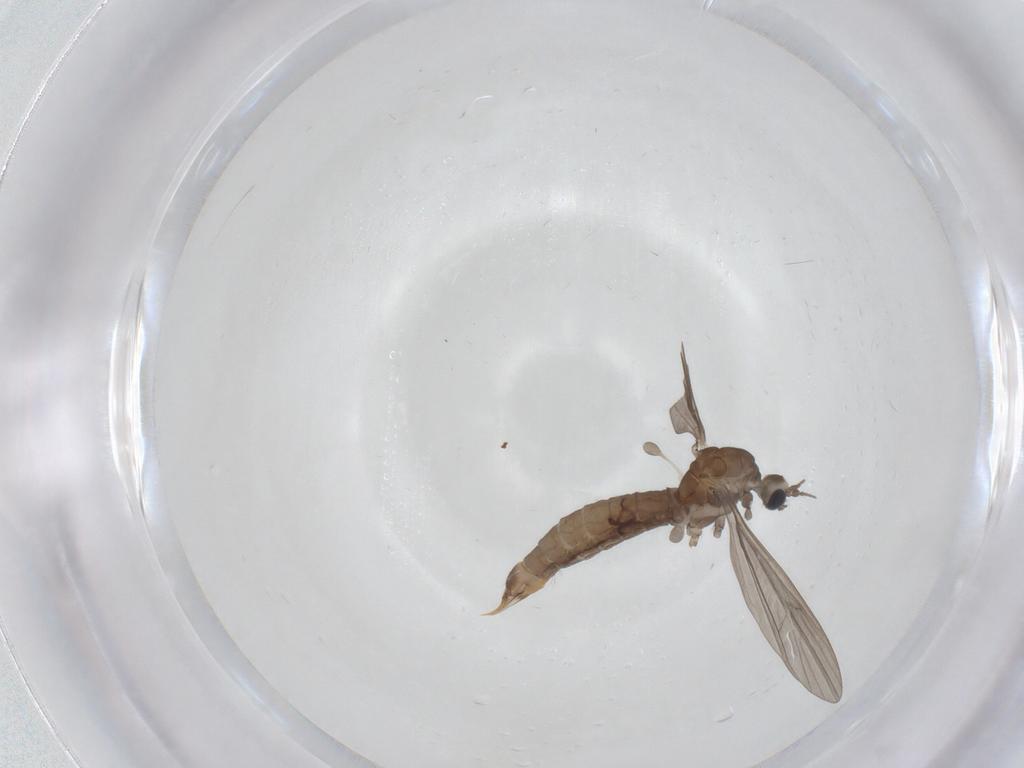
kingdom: Animalia
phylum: Arthropoda
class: Insecta
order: Diptera
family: Limoniidae
